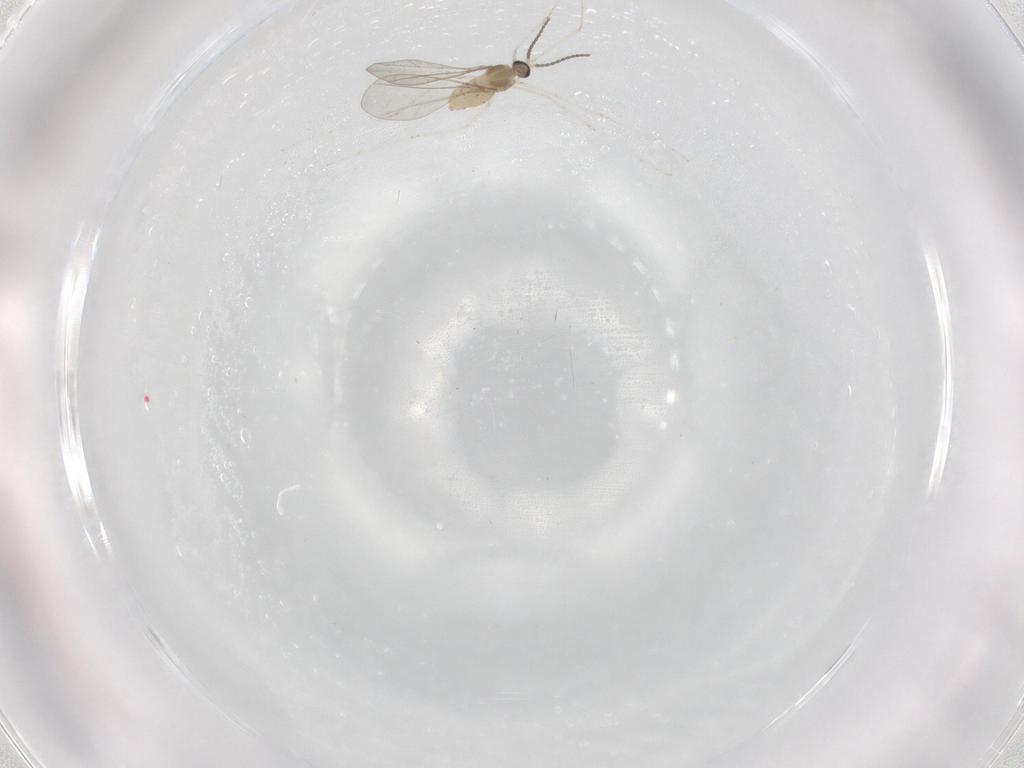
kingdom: Animalia
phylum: Arthropoda
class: Insecta
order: Diptera
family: Cecidomyiidae
